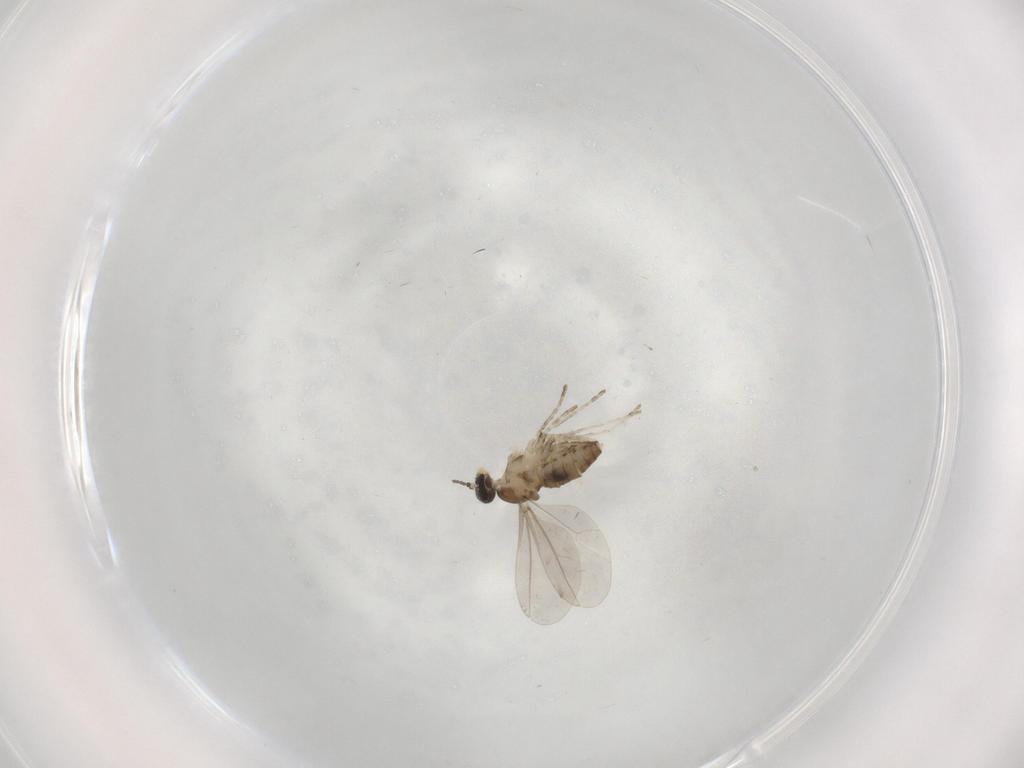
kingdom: Animalia
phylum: Arthropoda
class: Insecta
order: Diptera
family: Cecidomyiidae
